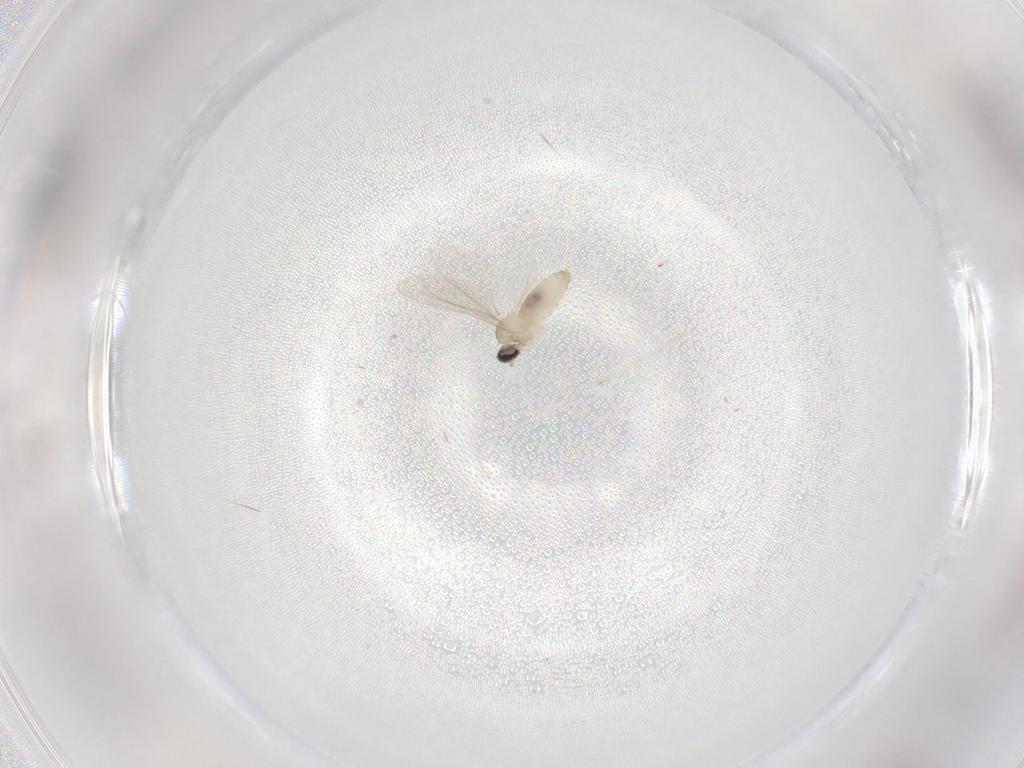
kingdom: Animalia
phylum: Arthropoda
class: Insecta
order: Diptera
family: Cecidomyiidae
